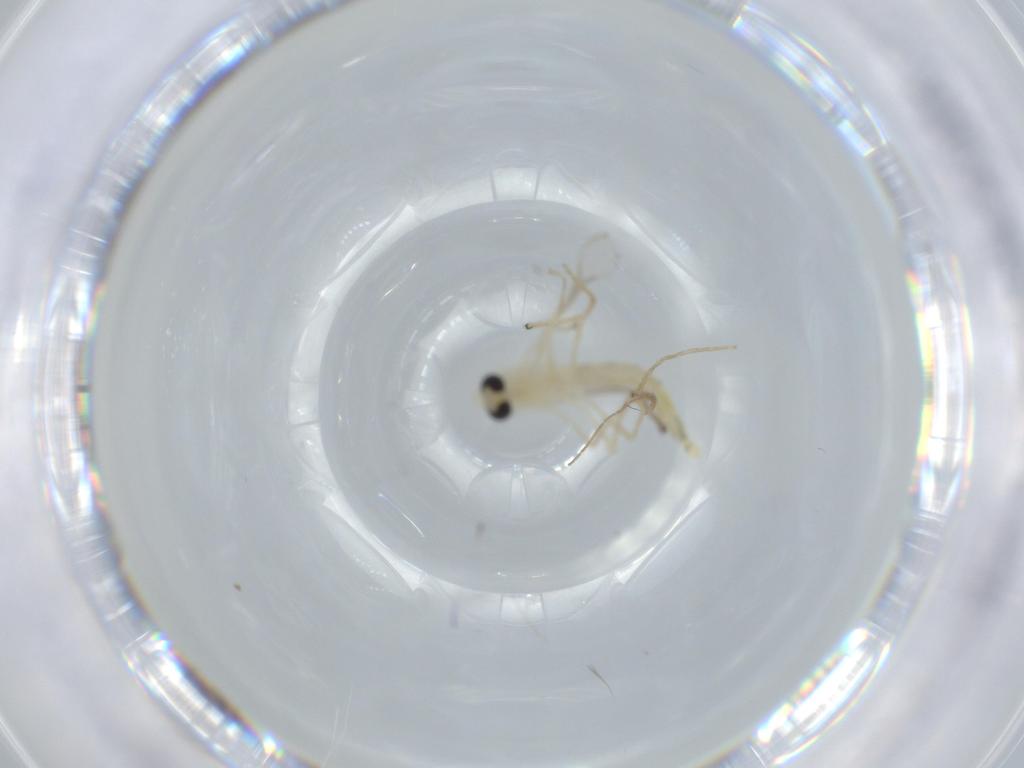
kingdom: Animalia
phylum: Arthropoda
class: Insecta
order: Diptera
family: Chironomidae
